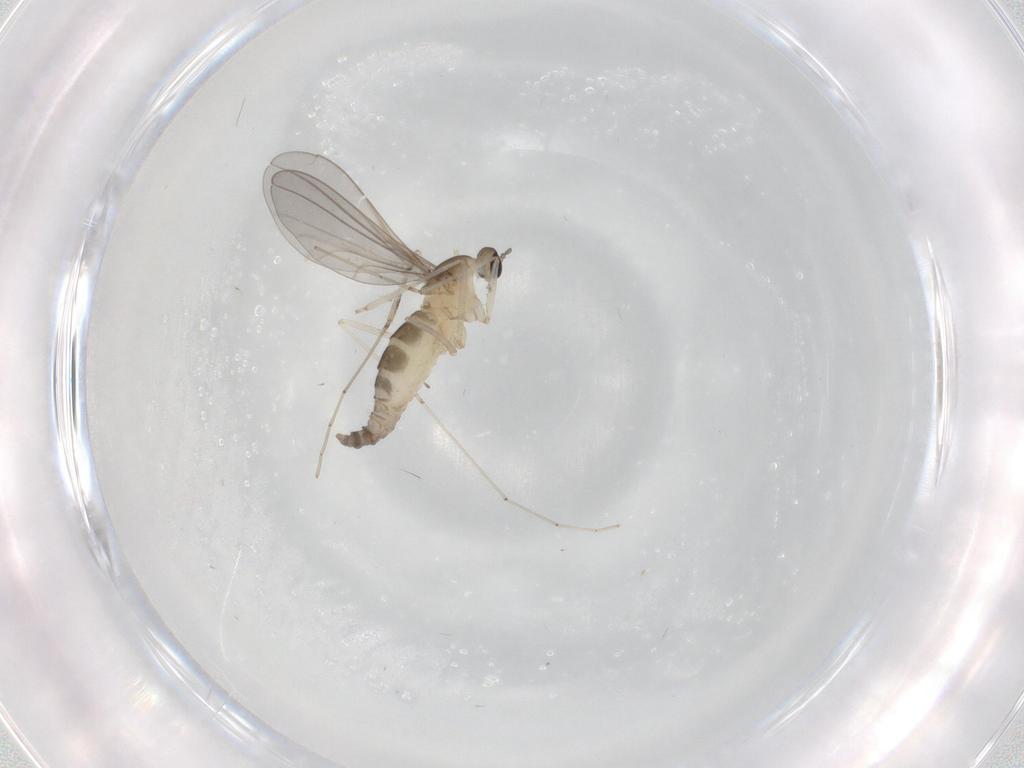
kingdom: Animalia
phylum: Arthropoda
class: Insecta
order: Diptera
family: Cecidomyiidae
